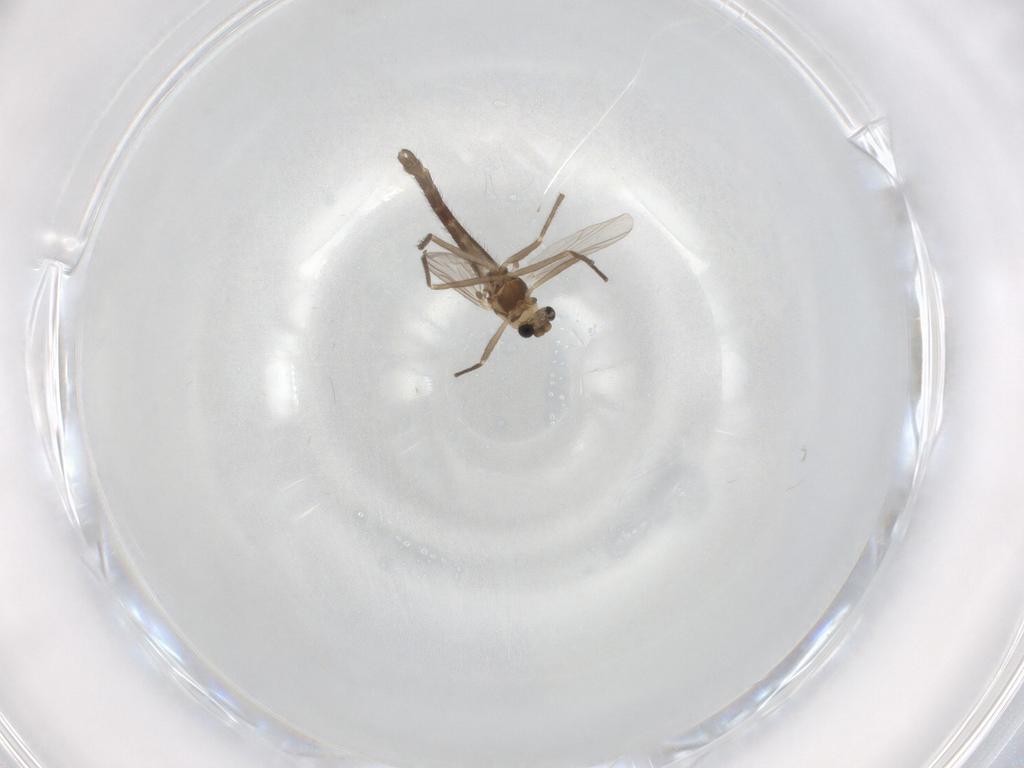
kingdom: Animalia
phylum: Arthropoda
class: Insecta
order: Diptera
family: Chironomidae
